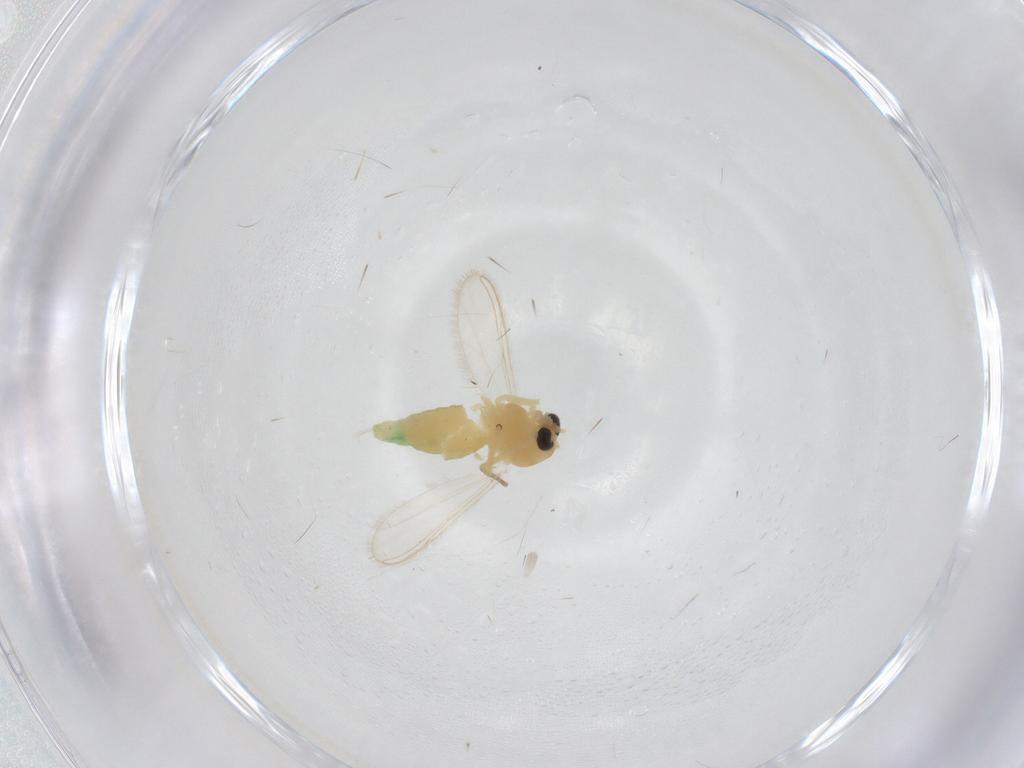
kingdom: Animalia
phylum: Arthropoda
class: Insecta
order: Diptera
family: Chironomidae
